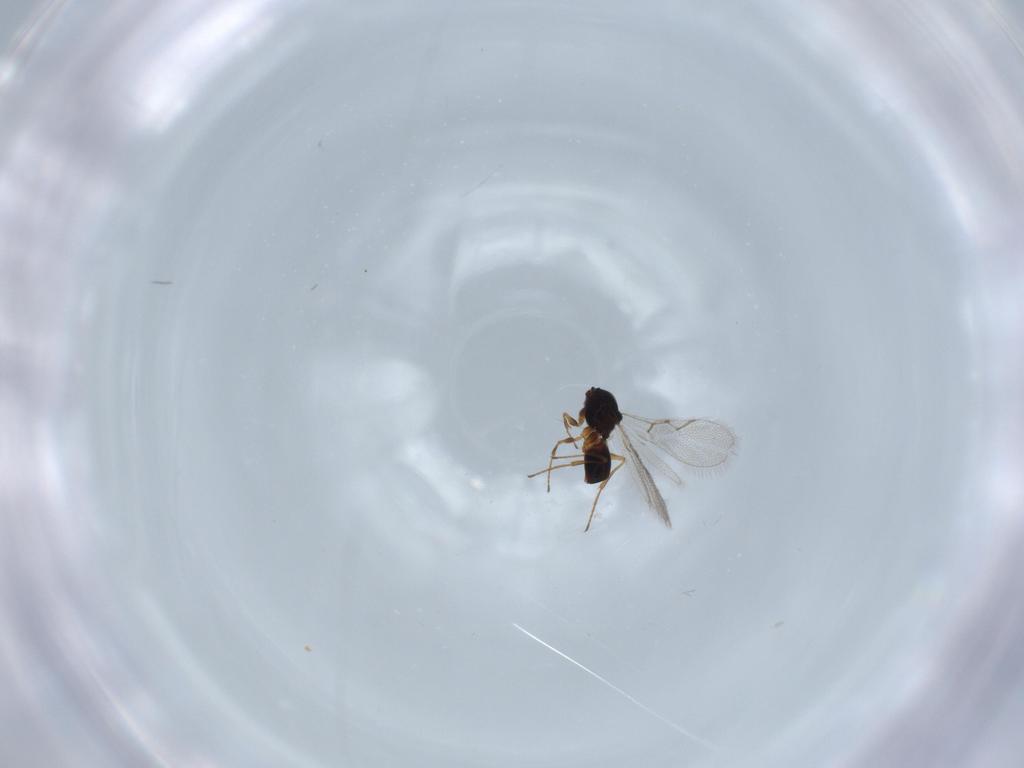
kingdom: Animalia
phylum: Arthropoda
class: Insecta
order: Hymenoptera
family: Figitidae
